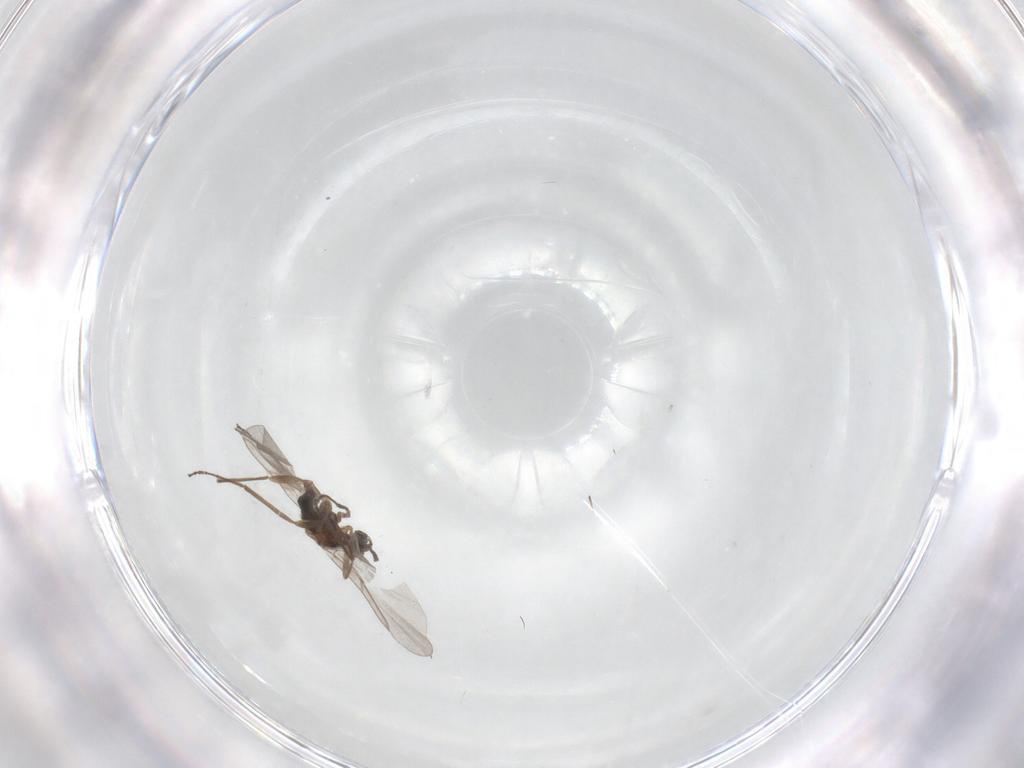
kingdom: Animalia
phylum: Arthropoda
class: Insecta
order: Diptera
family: Cecidomyiidae
